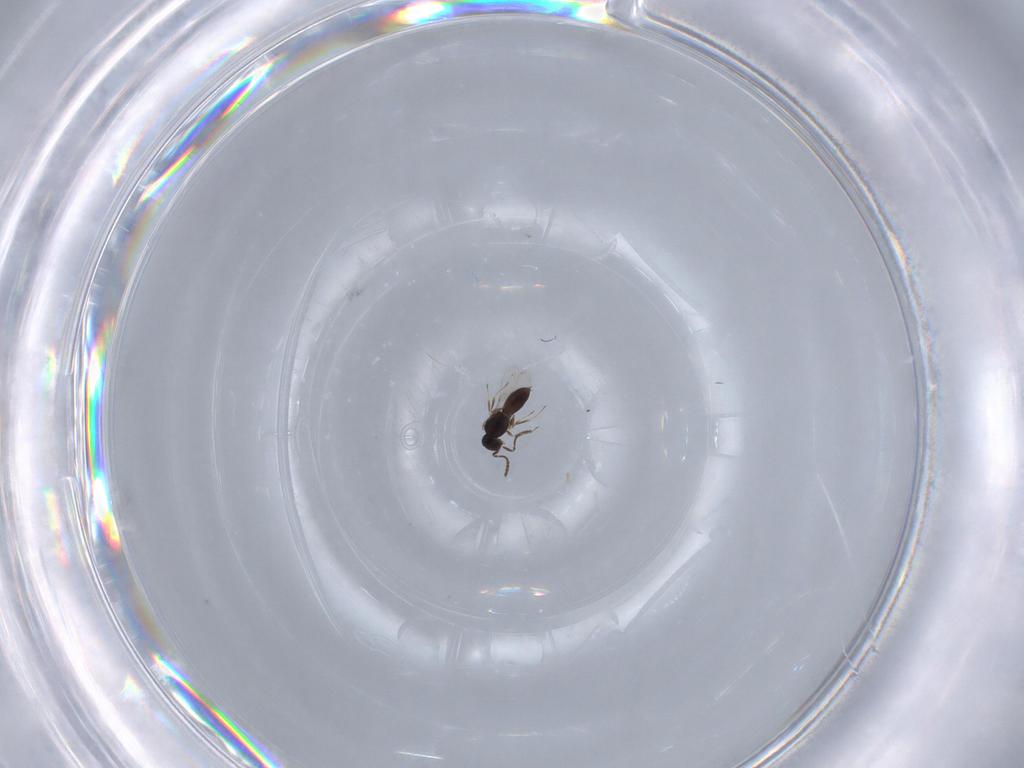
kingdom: Animalia
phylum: Arthropoda
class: Insecta
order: Hymenoptera
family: Scelionidae
